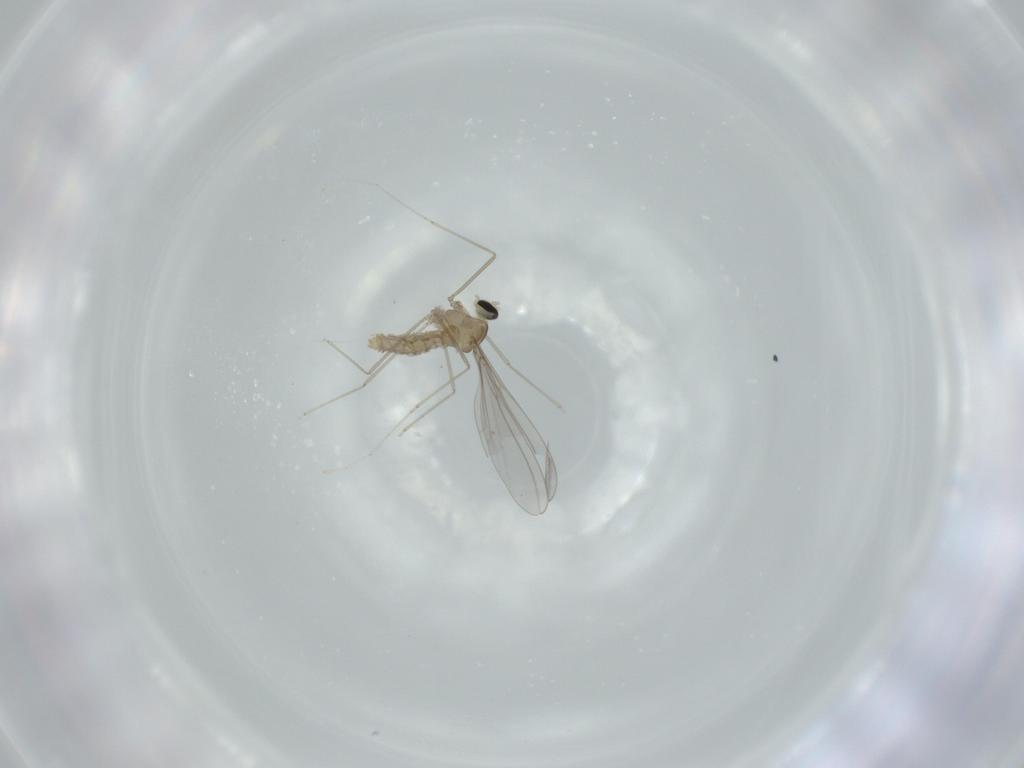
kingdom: Animalia
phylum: Arthropoda
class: Insecta
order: Diptera
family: Cecidomyiidae
